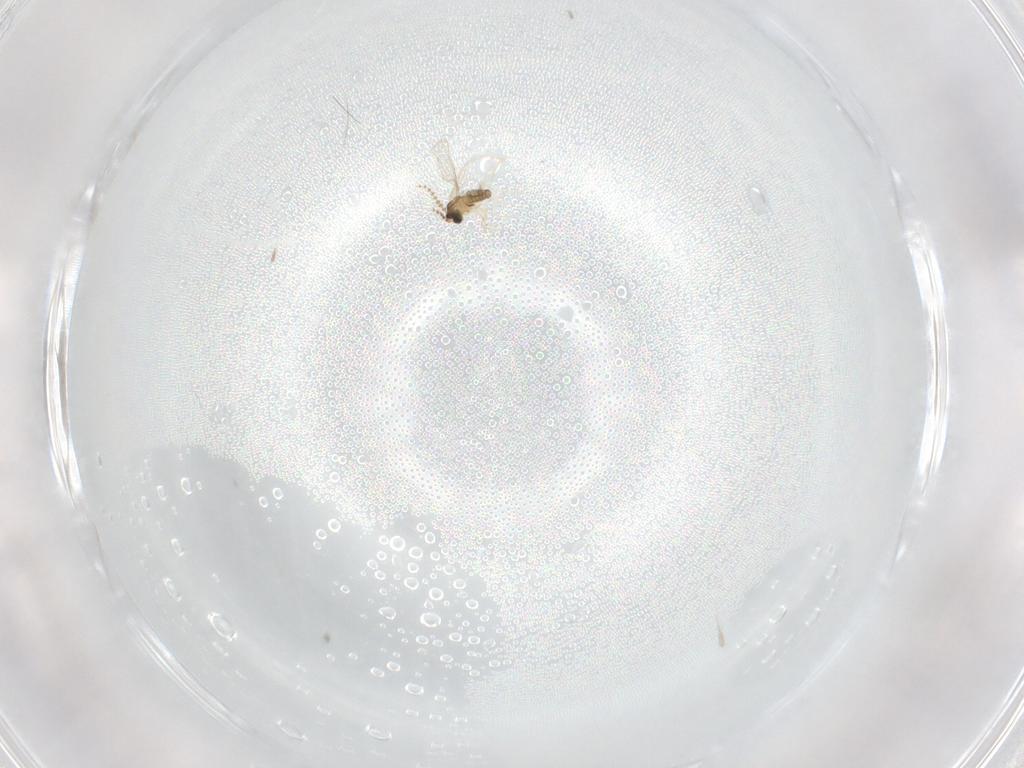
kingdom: Animalia
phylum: Arthropoda
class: Insecta
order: Diptera
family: Cecidomyiidae
